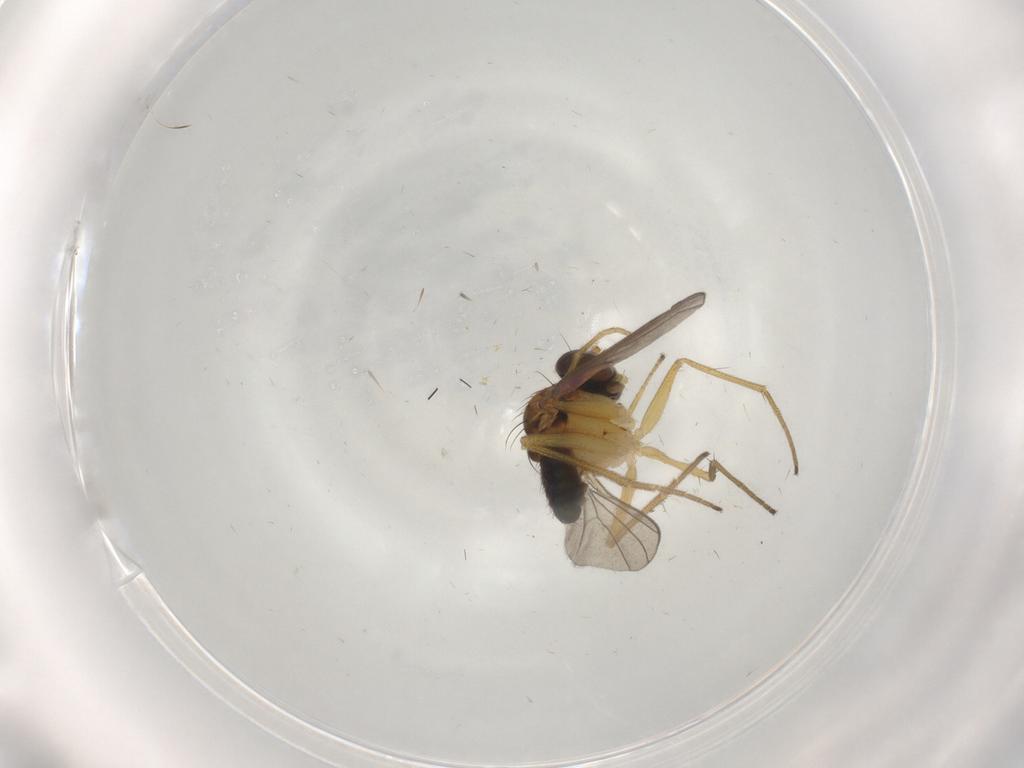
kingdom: Animalia
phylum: Arthropoda
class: Insecta
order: Diptera
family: Dolichopodidae
